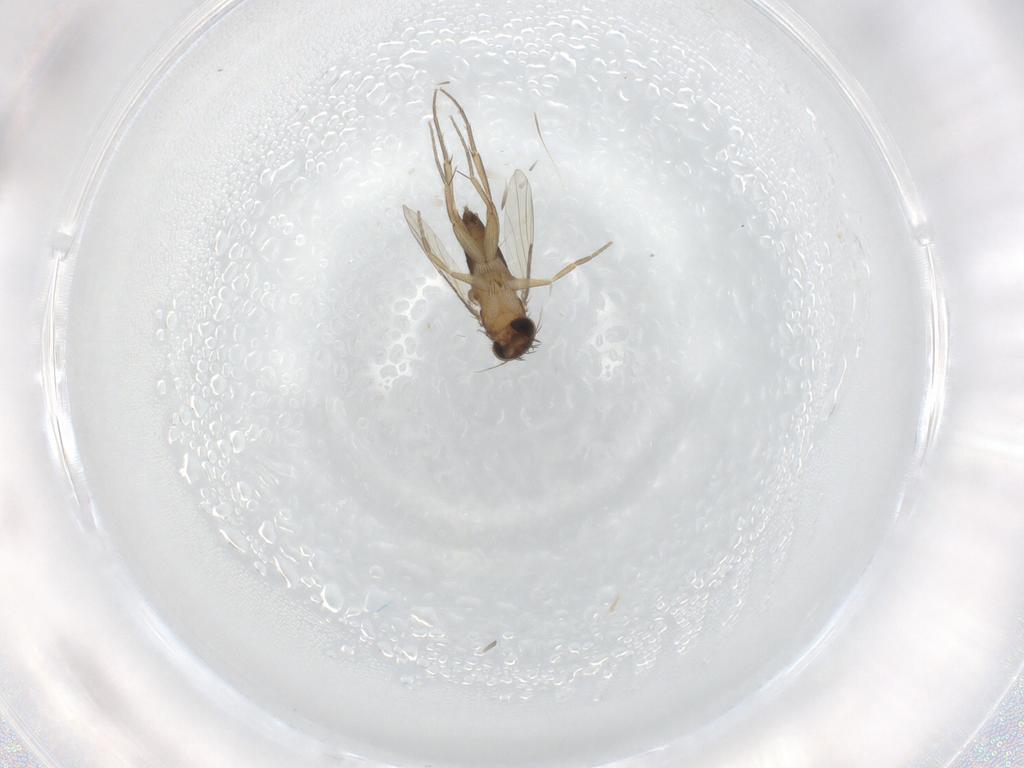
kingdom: Animalia
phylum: Arthropoda
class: Insecta
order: Diptera
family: Phoridae
